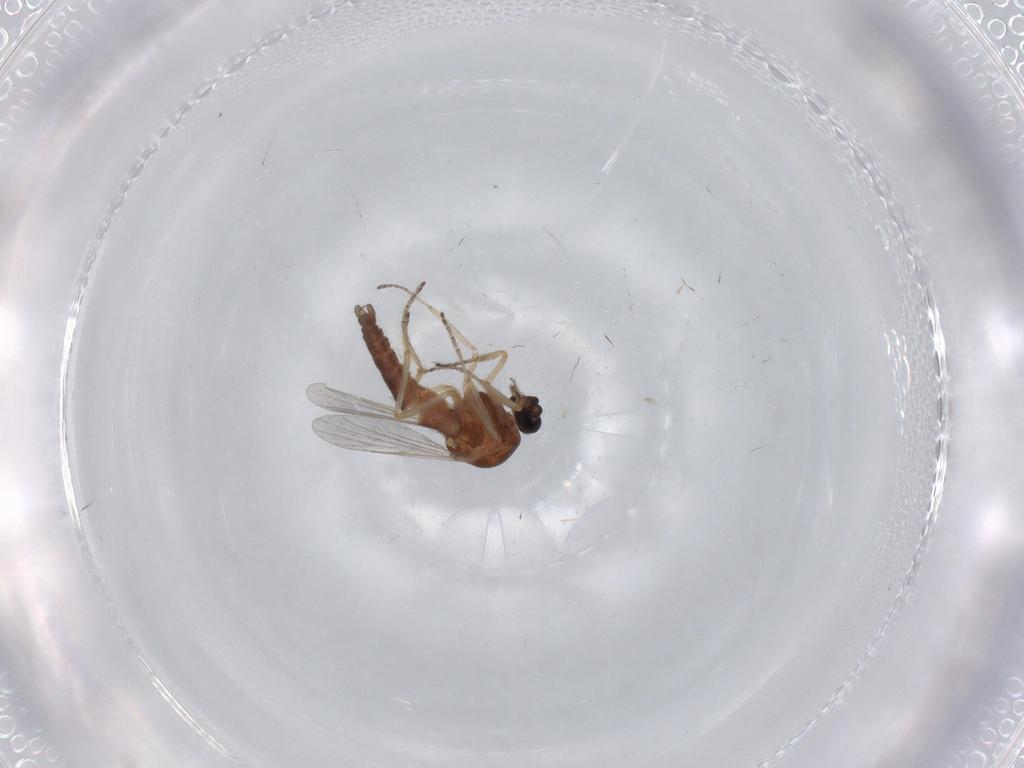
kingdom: Animalia
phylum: Arthropoda
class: Insecta
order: Diptera
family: Ceratopogonidae
